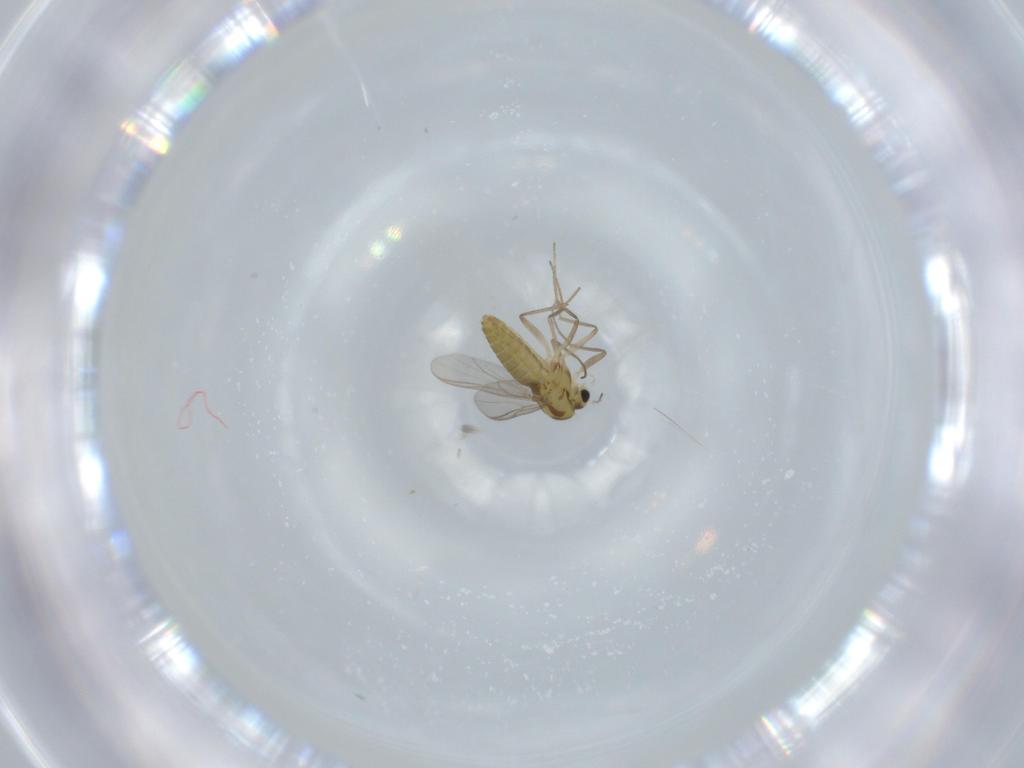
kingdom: Animalia
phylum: Arthropoda
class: Insecta
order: Diptera
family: Chironomidae
